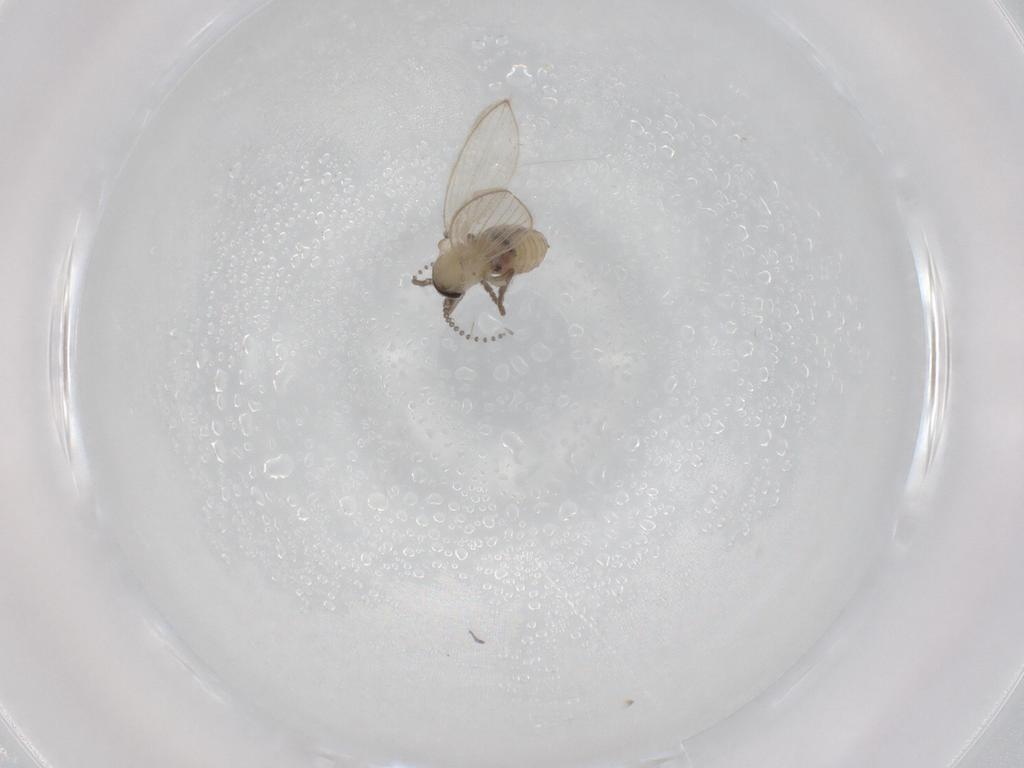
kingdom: Animalia
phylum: Arthropoda
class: Insecta
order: Diptera
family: Psychodidae
